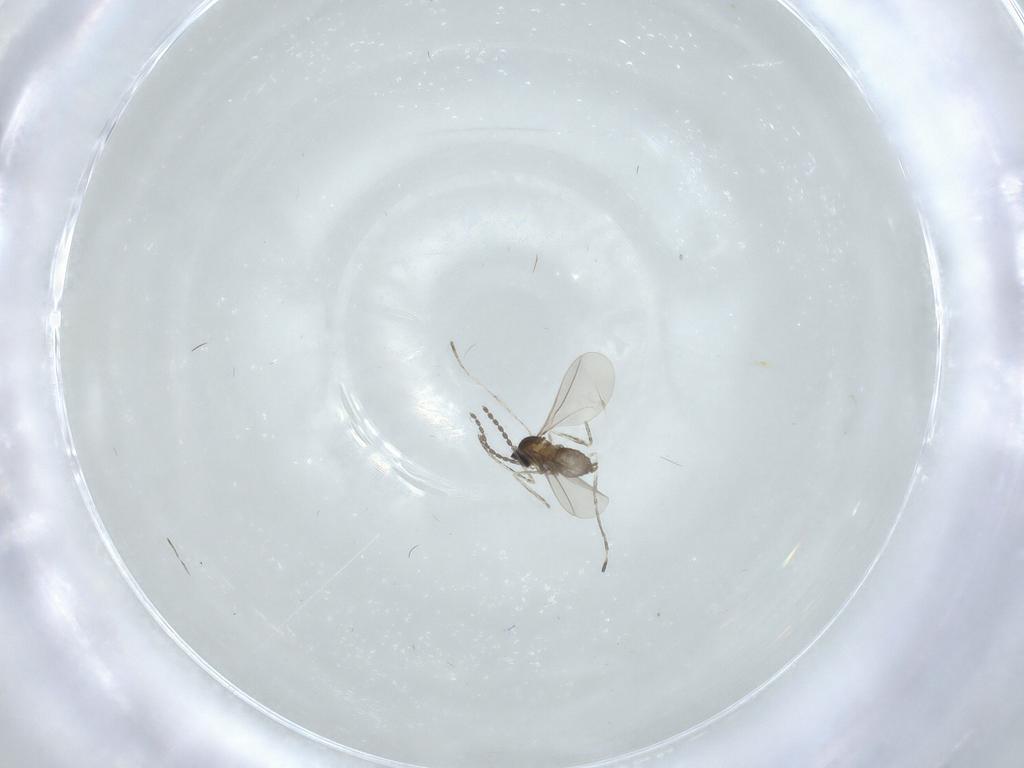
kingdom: Animalia
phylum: Arthropoda
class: Insecta
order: Diptera
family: Cecidomyiidae
